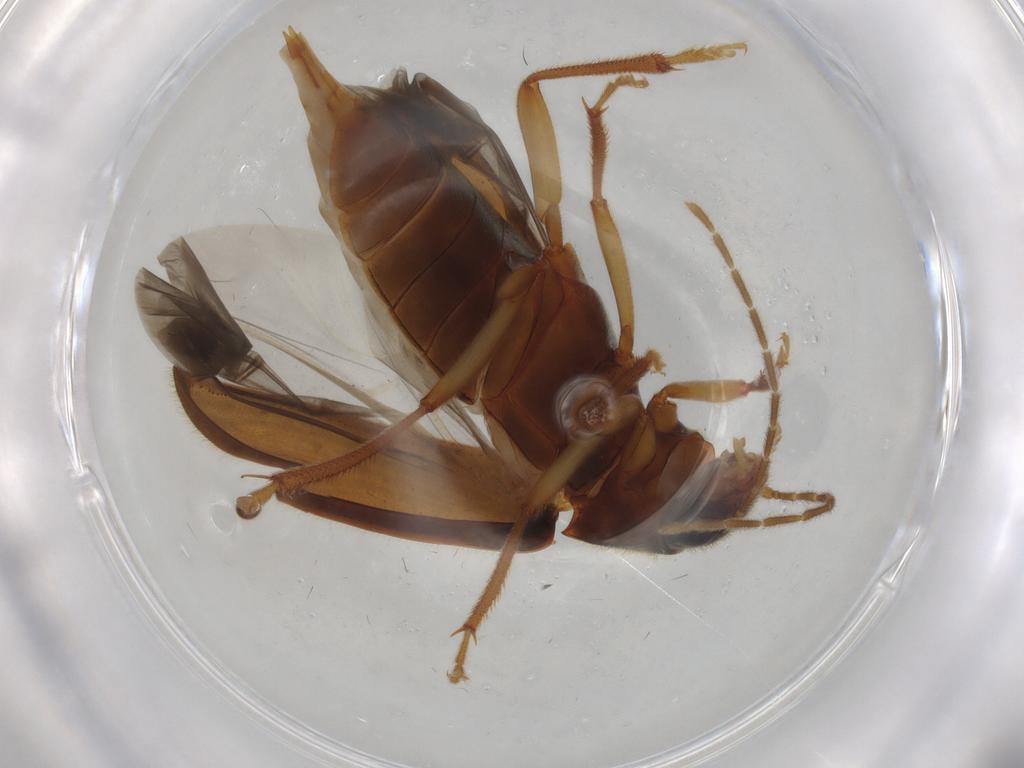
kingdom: Animalia
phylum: Arthropoda
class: Insecta
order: Coleoptera
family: Ptilodactylidae
